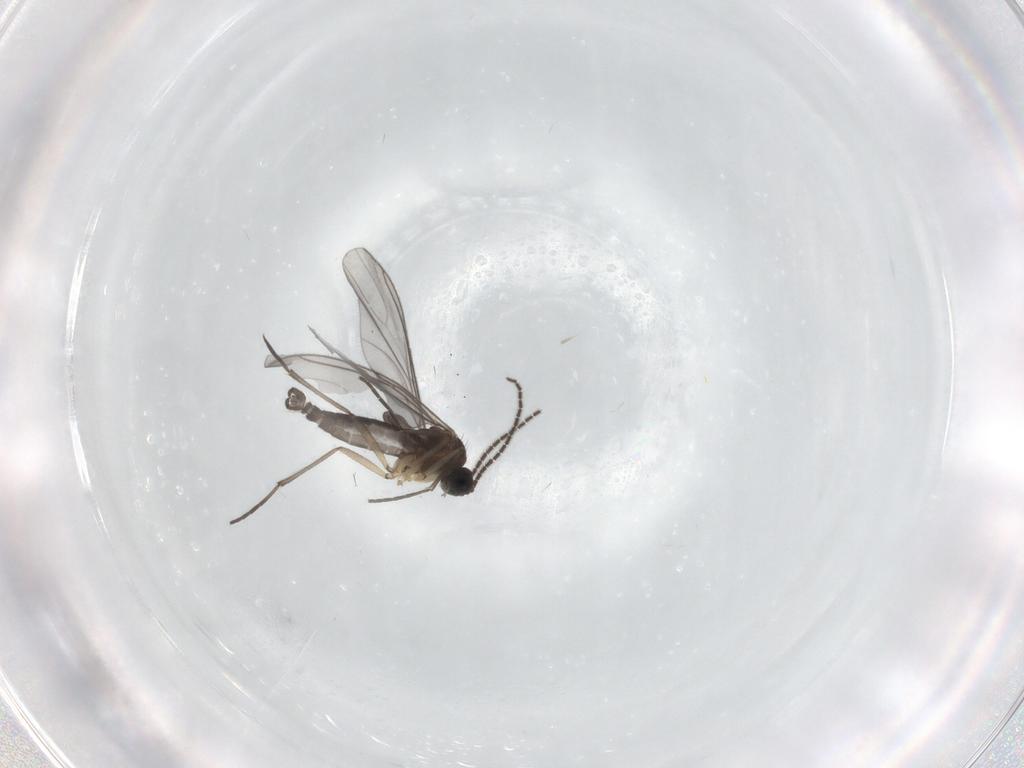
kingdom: Animalia
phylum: Arthropoda
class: Insecta
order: Diptera
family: Sciaridae
